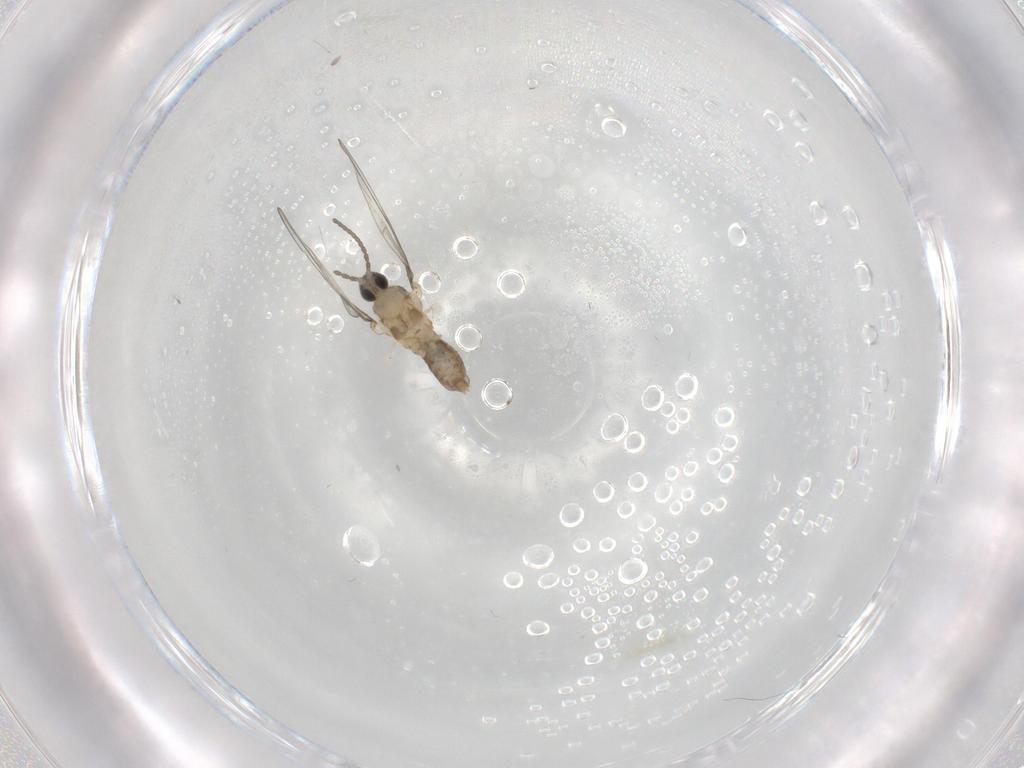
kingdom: Animalia
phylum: Arthropoda
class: Insecta
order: Diptera
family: Cecidomyiidae
